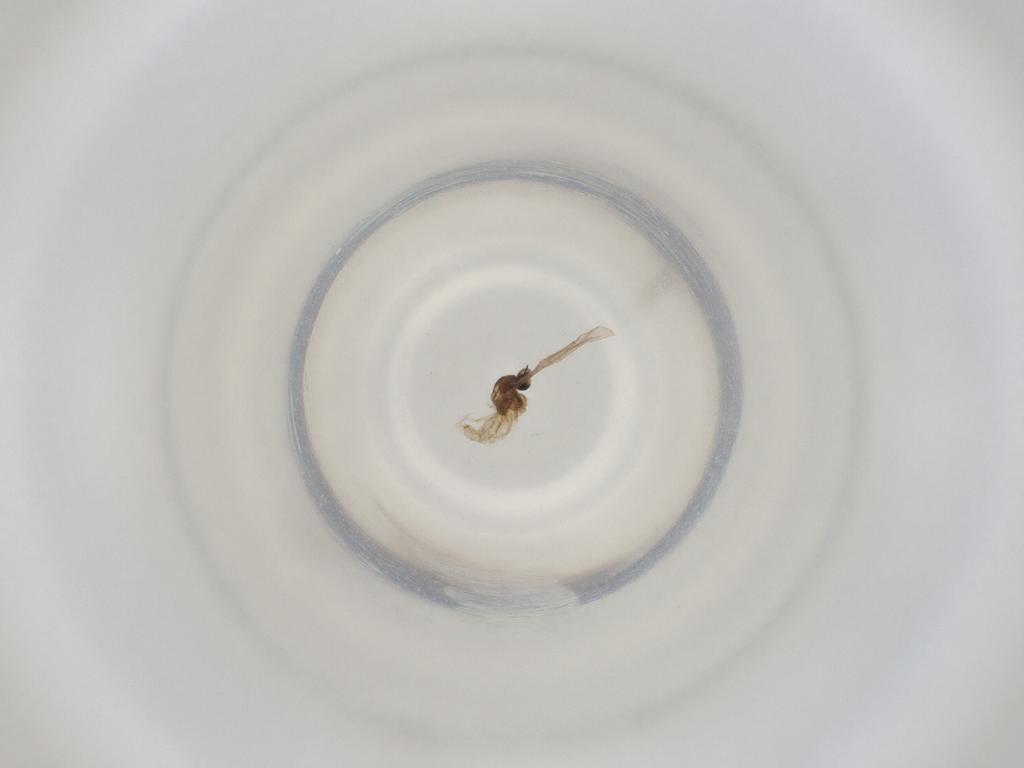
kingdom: Animalia
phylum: Arthropoda
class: Insecta
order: Diptera
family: Cecidomyiidae
